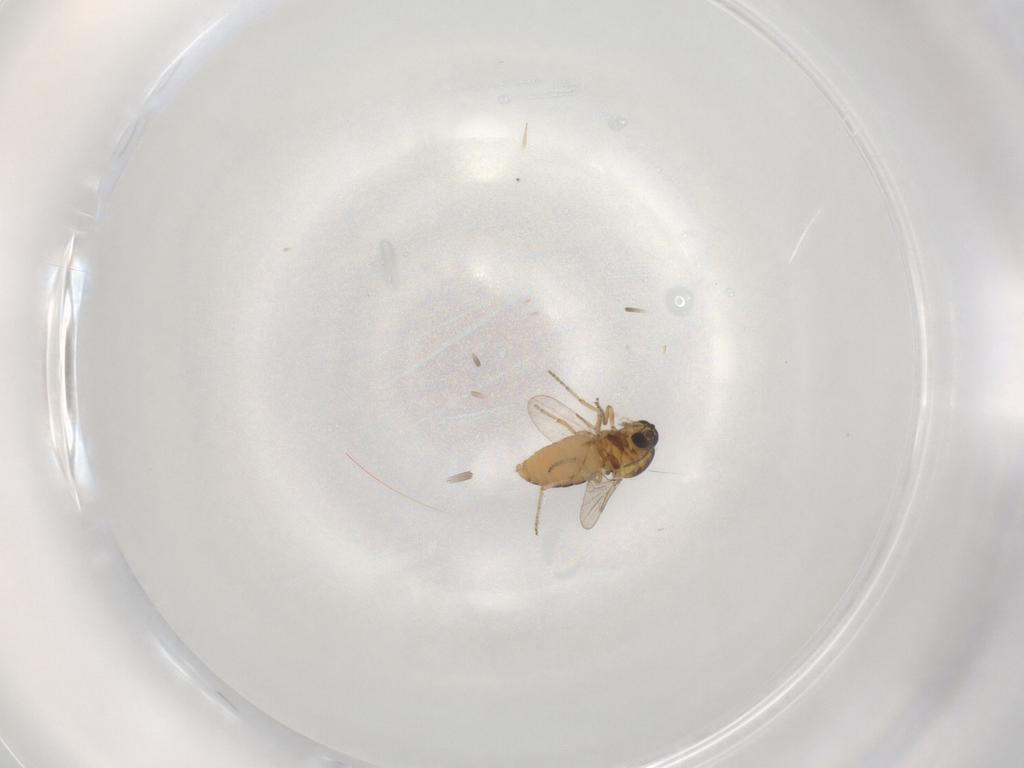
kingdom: Animalia
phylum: Arthropoda
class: Insecta
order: Diptera
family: Ceratopogonidae
